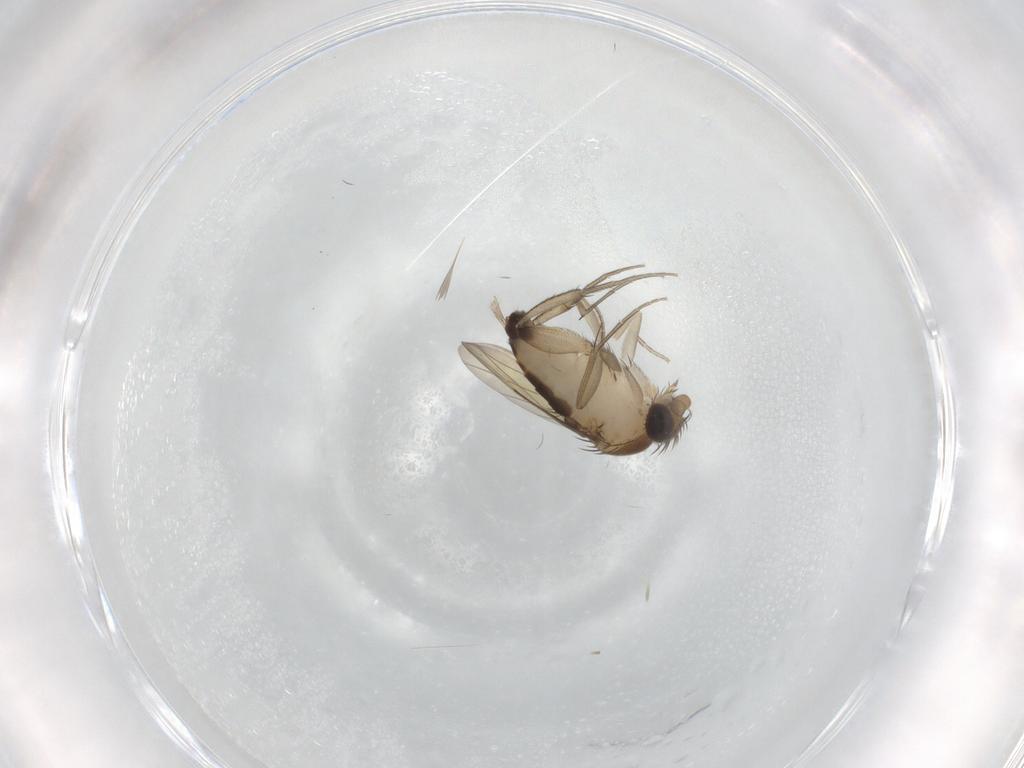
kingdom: Animalia
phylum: Arthropoda
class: Insecta
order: Diptera
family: Phoridae
